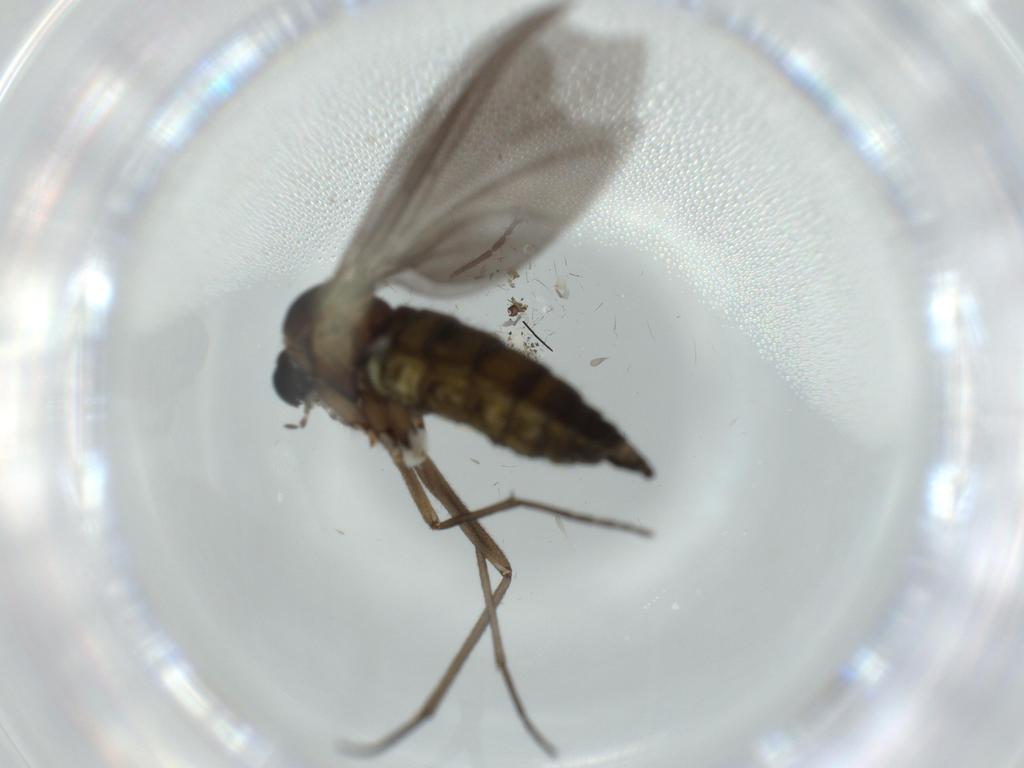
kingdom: Animalia
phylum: Arthropoda
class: Insecta
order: Diptera
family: Sciaridae
